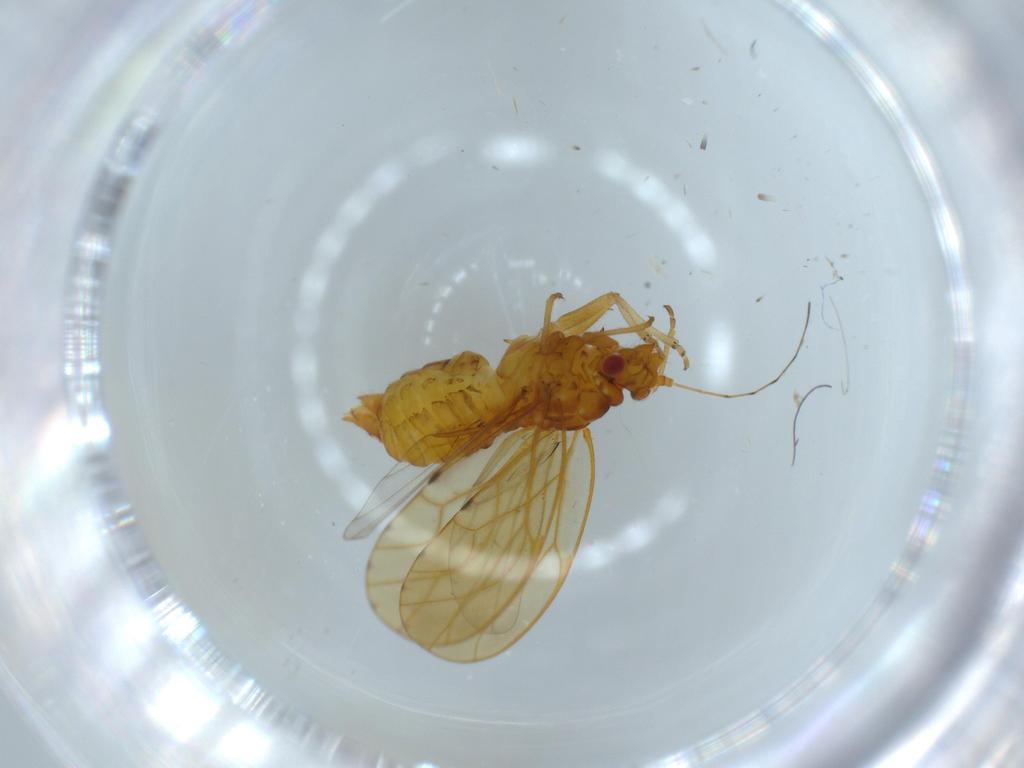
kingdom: Animalia
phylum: Arthropoda
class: Insecta
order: Hemiptera
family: Psylloidea_incertae_sedis
